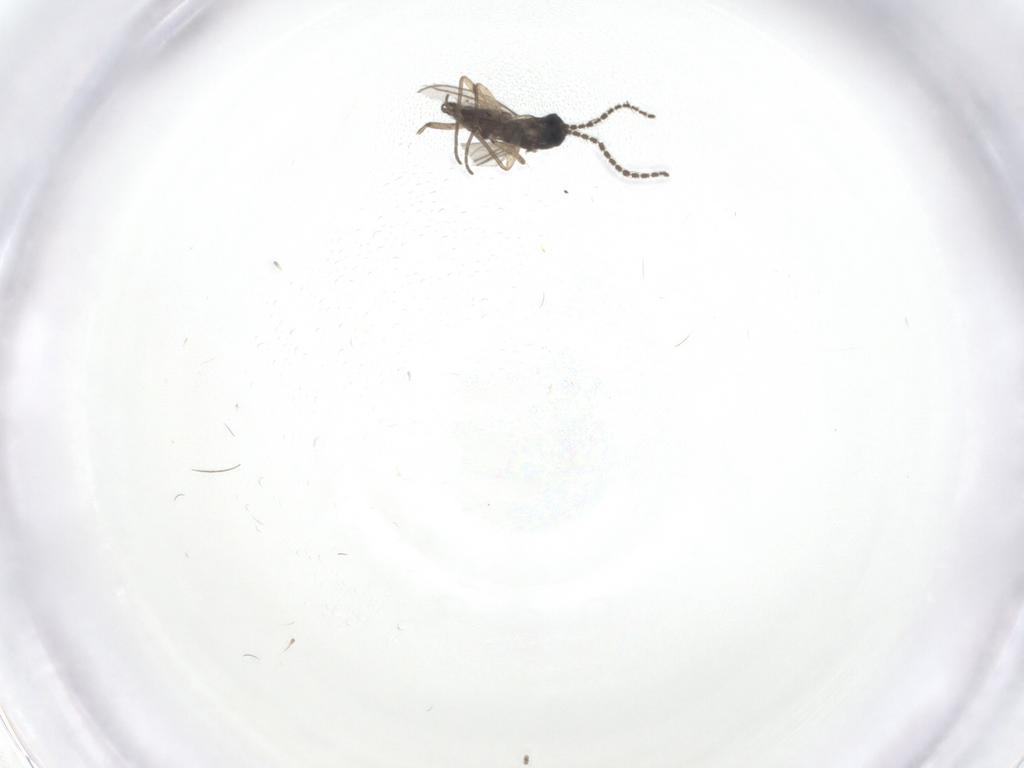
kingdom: Animalia
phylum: Arthropoda
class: Insecta
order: Diptera
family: Sciaridae
